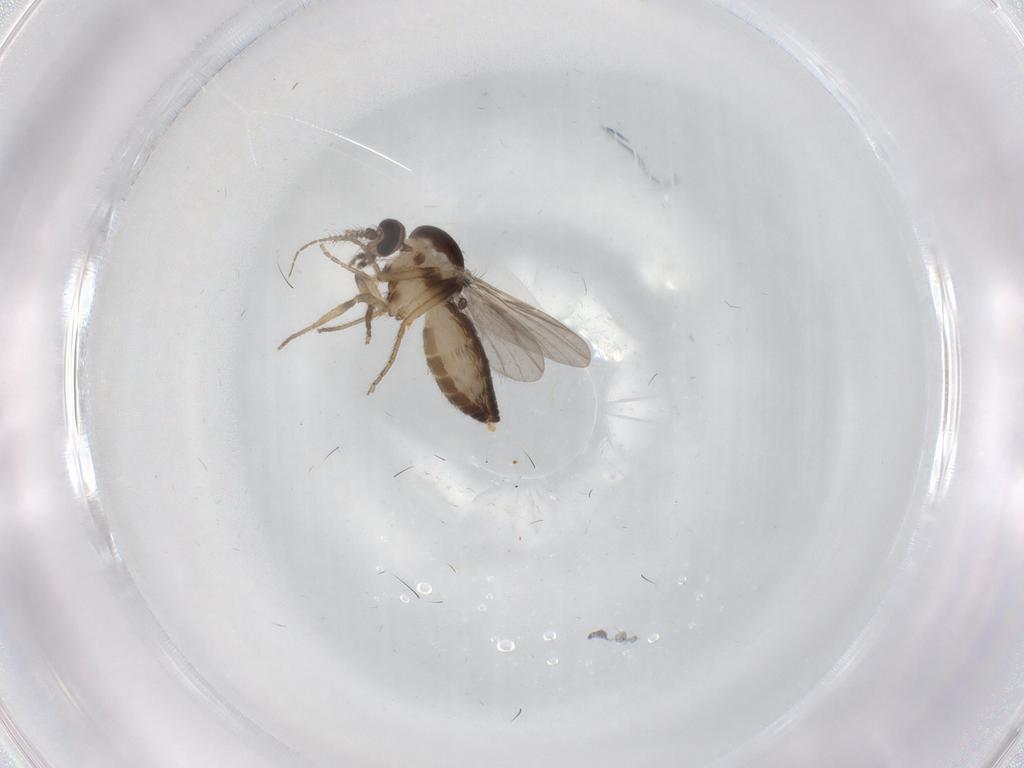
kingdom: Animalia
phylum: Arthropoda
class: Insecta
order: Diptera
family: Ceratopogonidae
